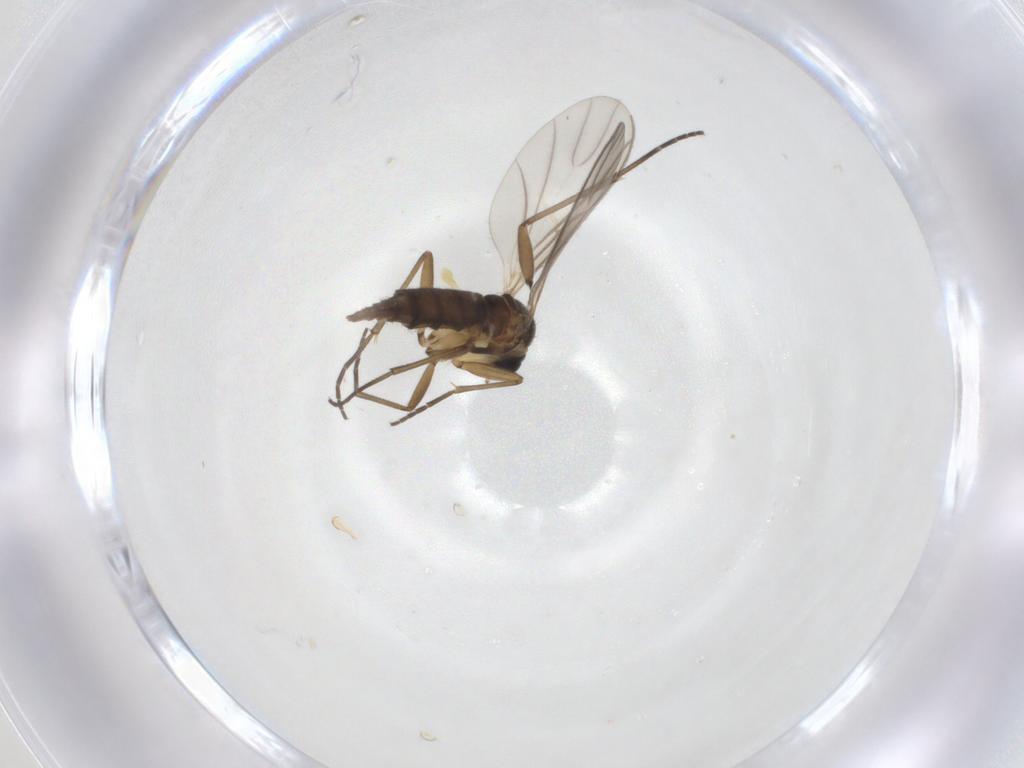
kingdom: Animalia
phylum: Arthropoda
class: Insecta
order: Diptera
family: Sciaridae
